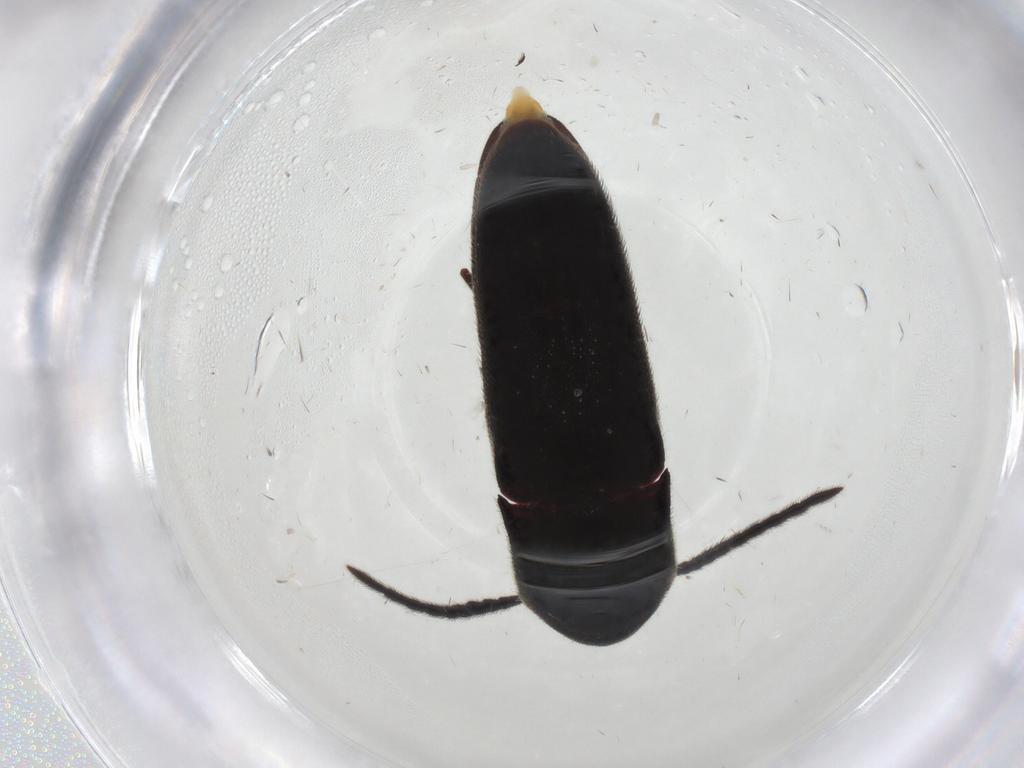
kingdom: Animalia
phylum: Arthropoda
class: Insecta
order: Coleoptera
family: Eucnemidae
